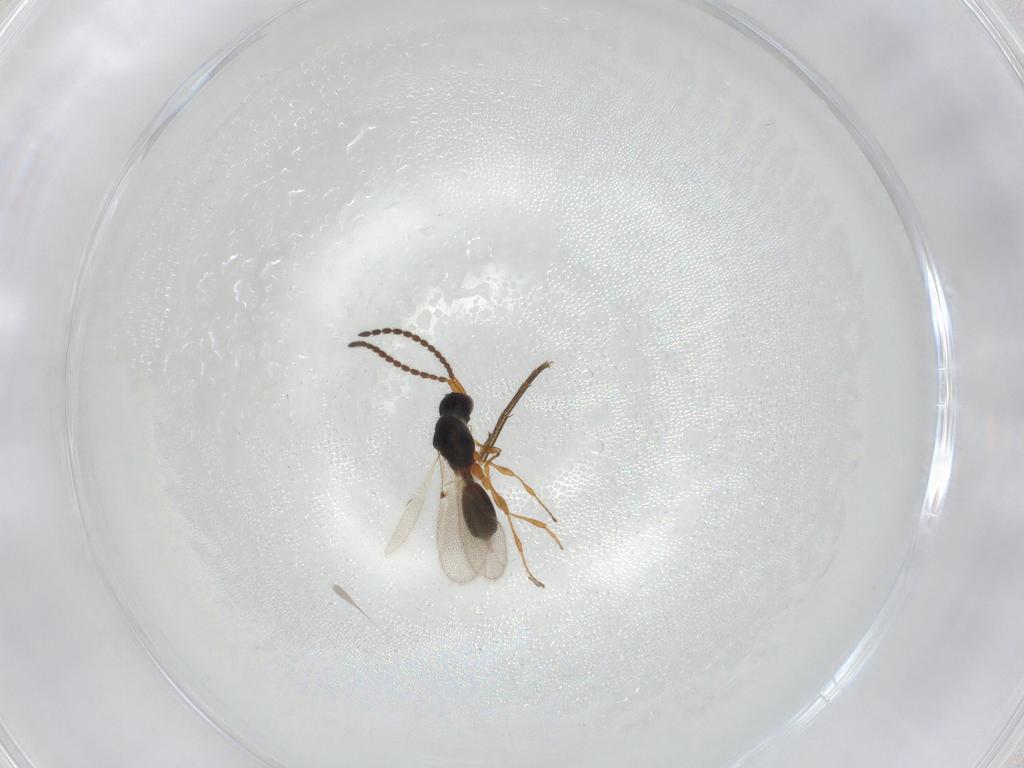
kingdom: Animalia
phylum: Arthropoda
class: Insecta
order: Diptera
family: Phoridae
